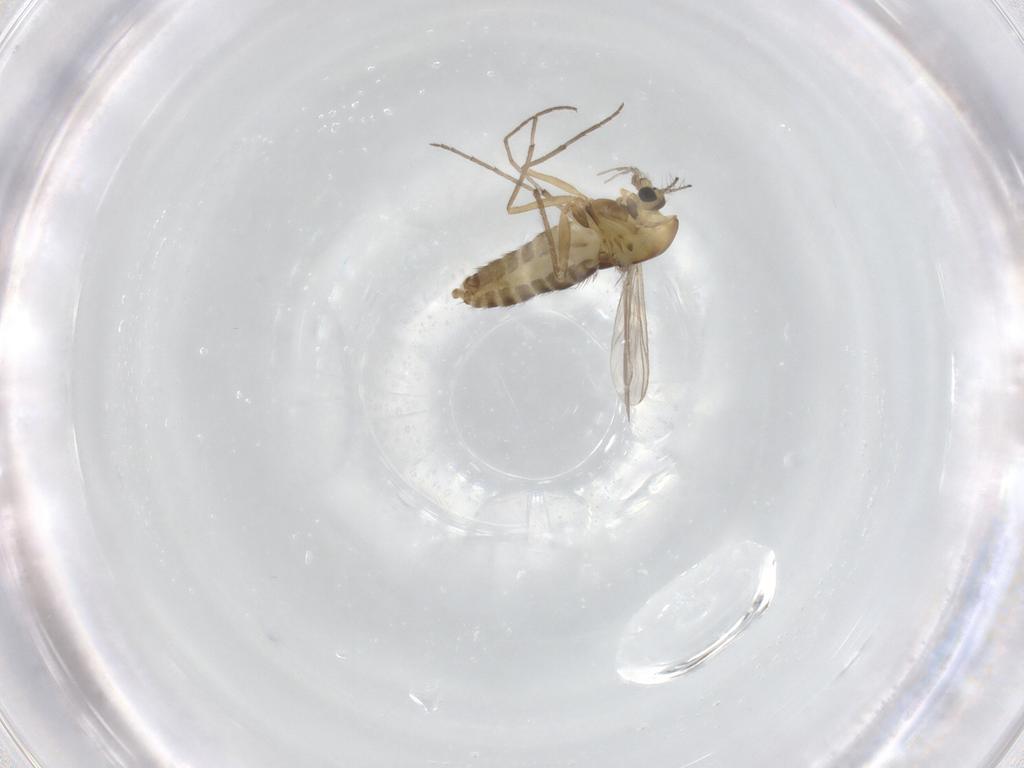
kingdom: Animalia
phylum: Arthropoda
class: Insecta
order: Diptera
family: Chironomidae
